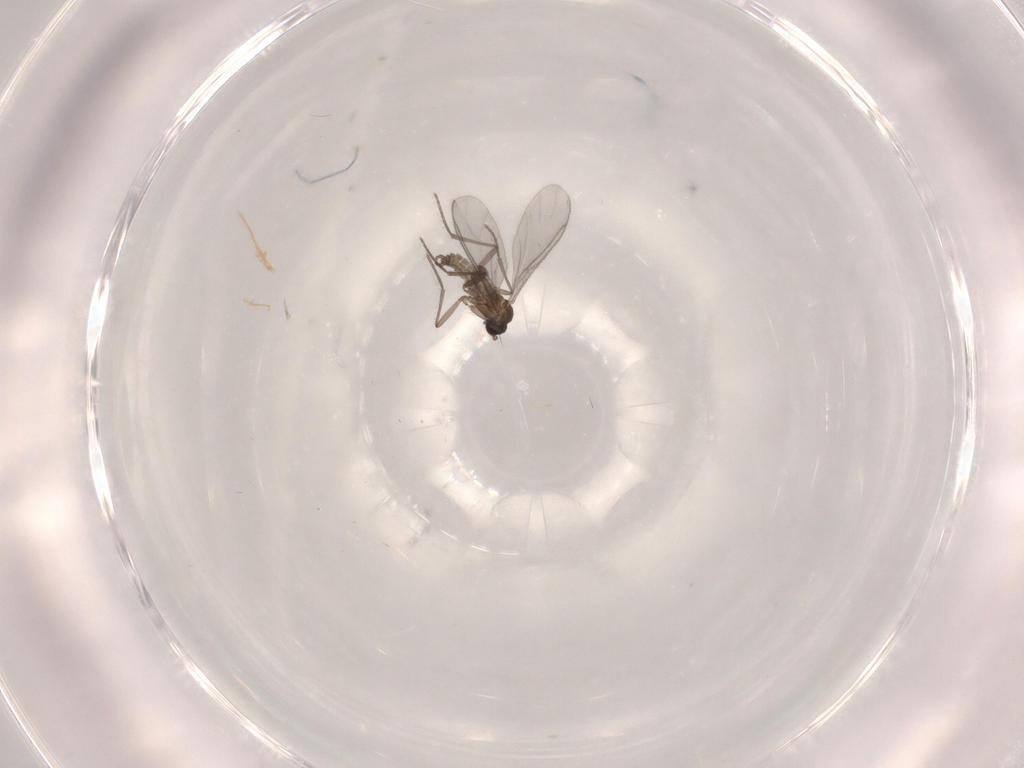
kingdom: Animalia
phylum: Arthropoda
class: Insecta
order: Diptera
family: Sciaridae
